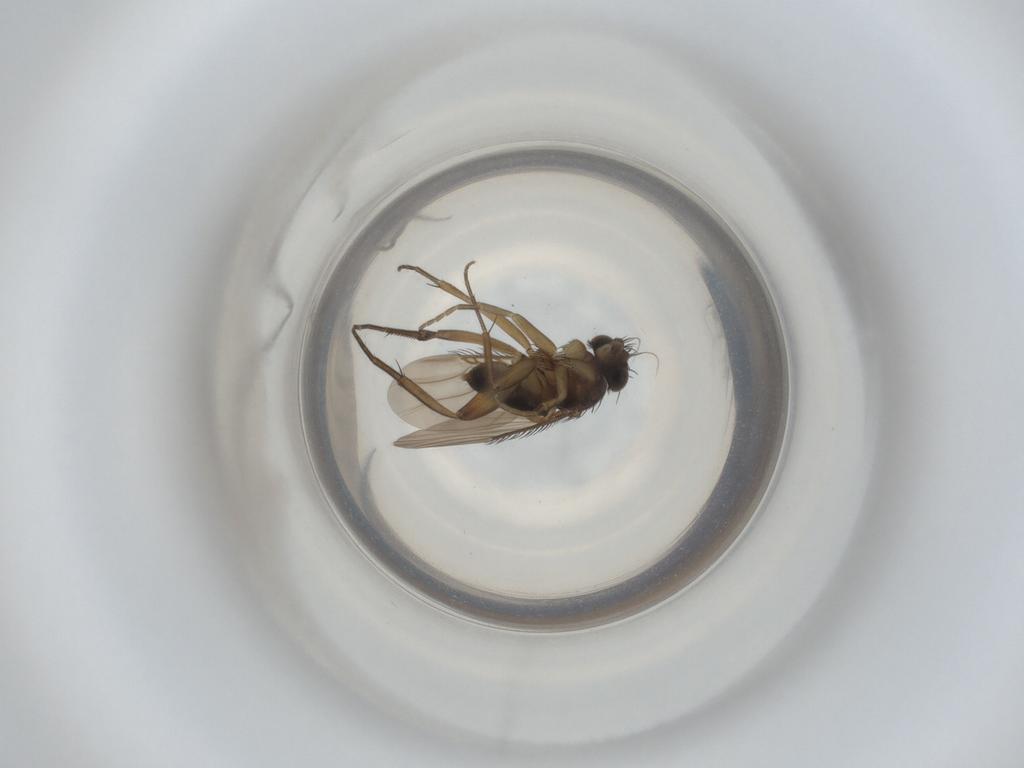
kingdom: Animalia
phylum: Arthropoda
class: Insecta
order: Diptera
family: Phoridae
